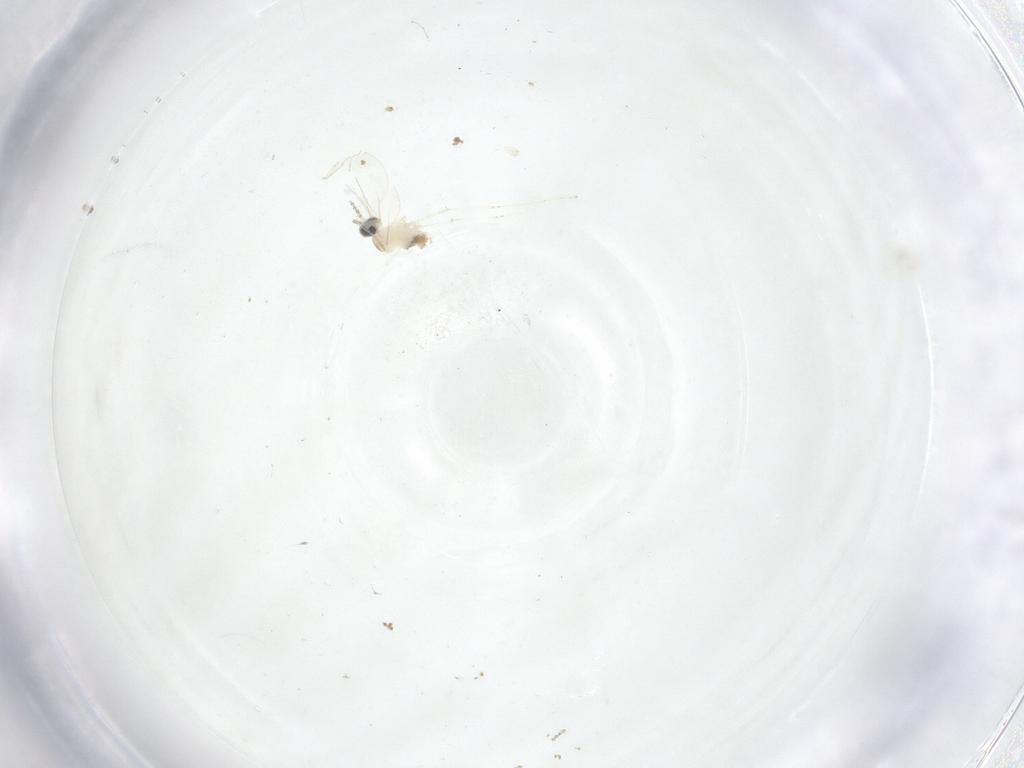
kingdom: Animalia
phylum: Arthropoda
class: Insecta
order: Diptera
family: Cecidomyiidae
